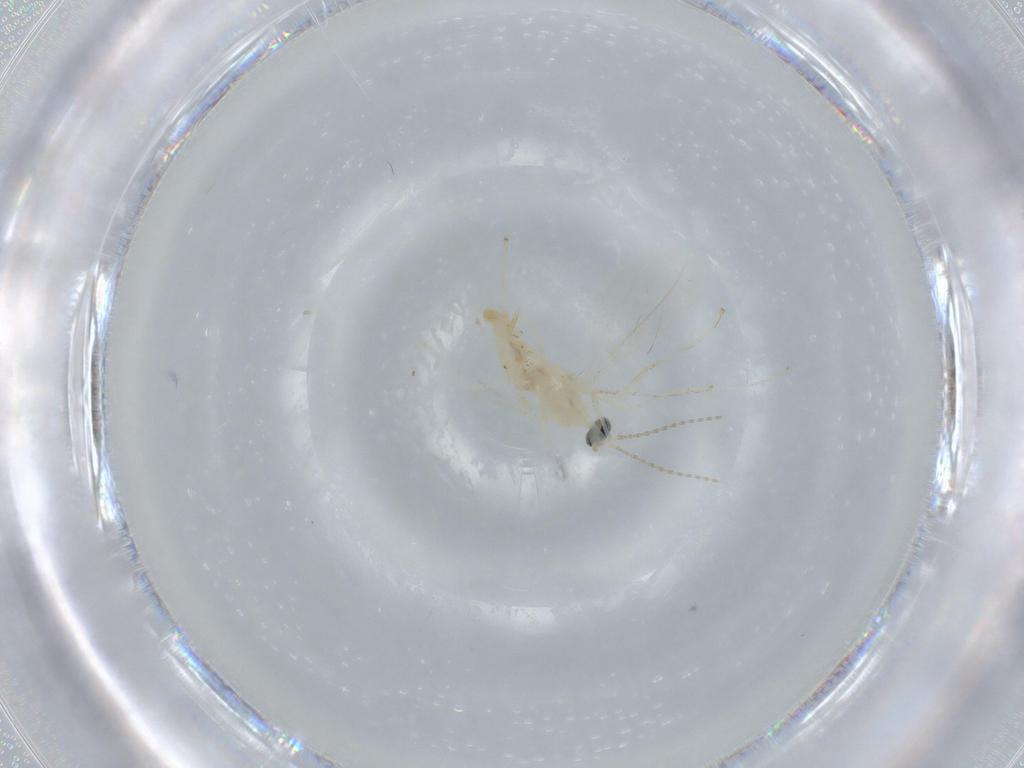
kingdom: Animalia
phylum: Arthropoda
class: Insecta
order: Diptera
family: Cecidomyiidae
